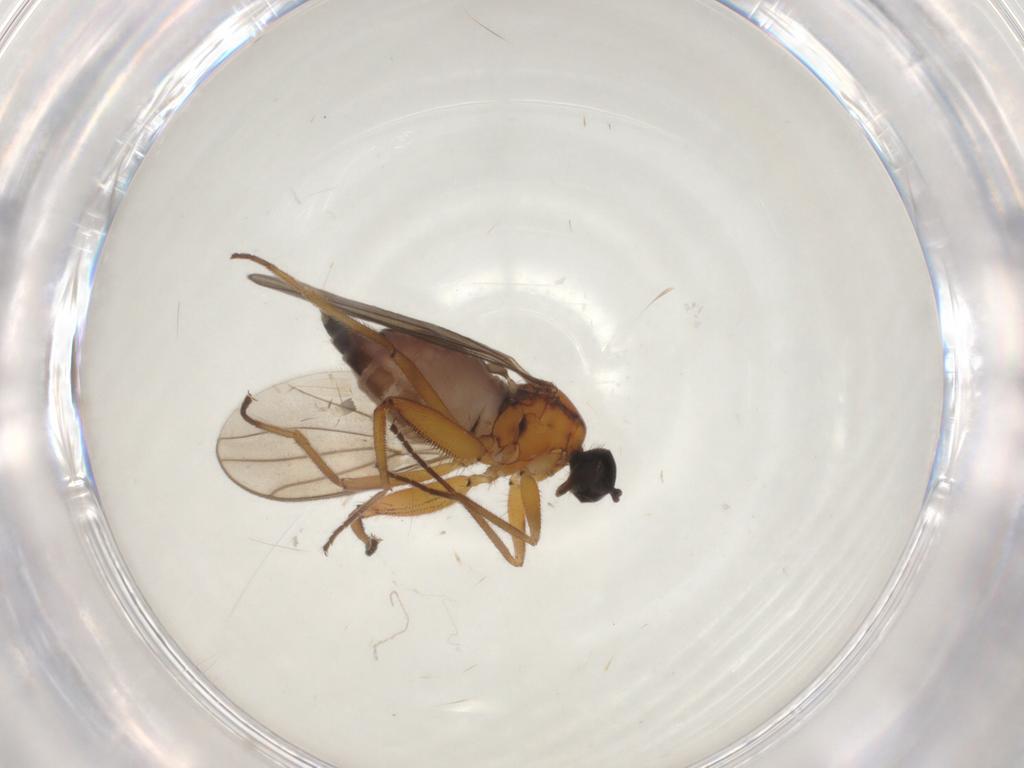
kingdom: Animalia
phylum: Arthropoda
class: Insecta
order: Diptera
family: Hybotidae
